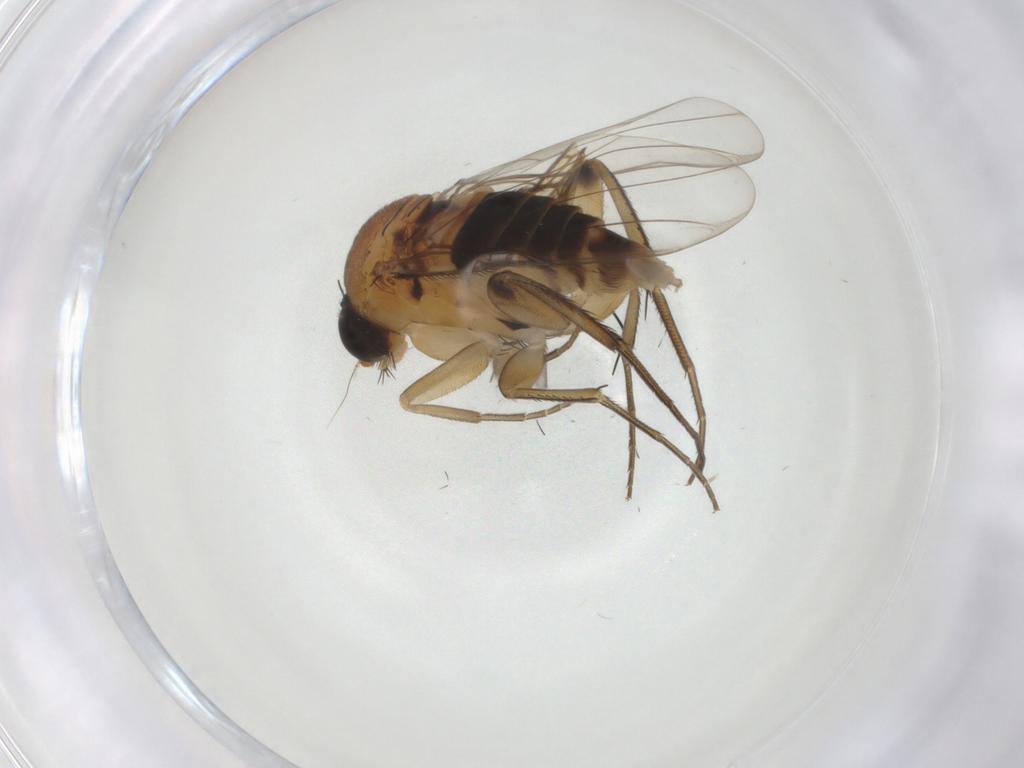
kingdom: Animalia
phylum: Arthropoda
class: Insecta
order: Diptera
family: Phoridae
